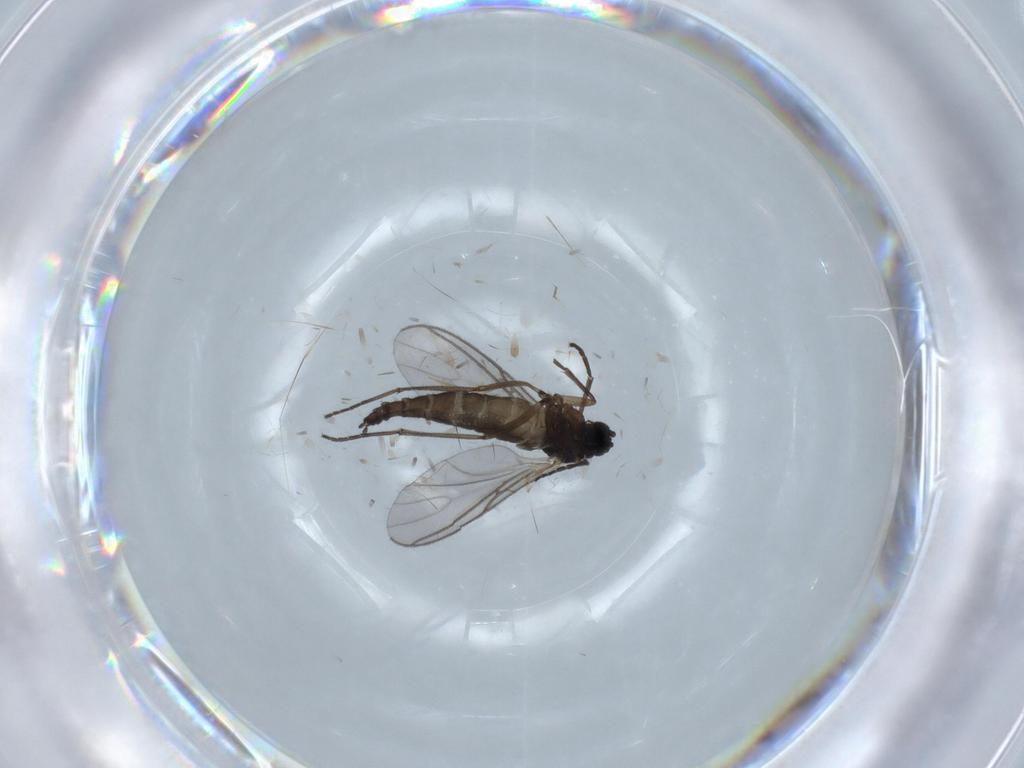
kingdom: Animalia
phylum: Arthropoda
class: Insecta
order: Diptera
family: Sciaridae
